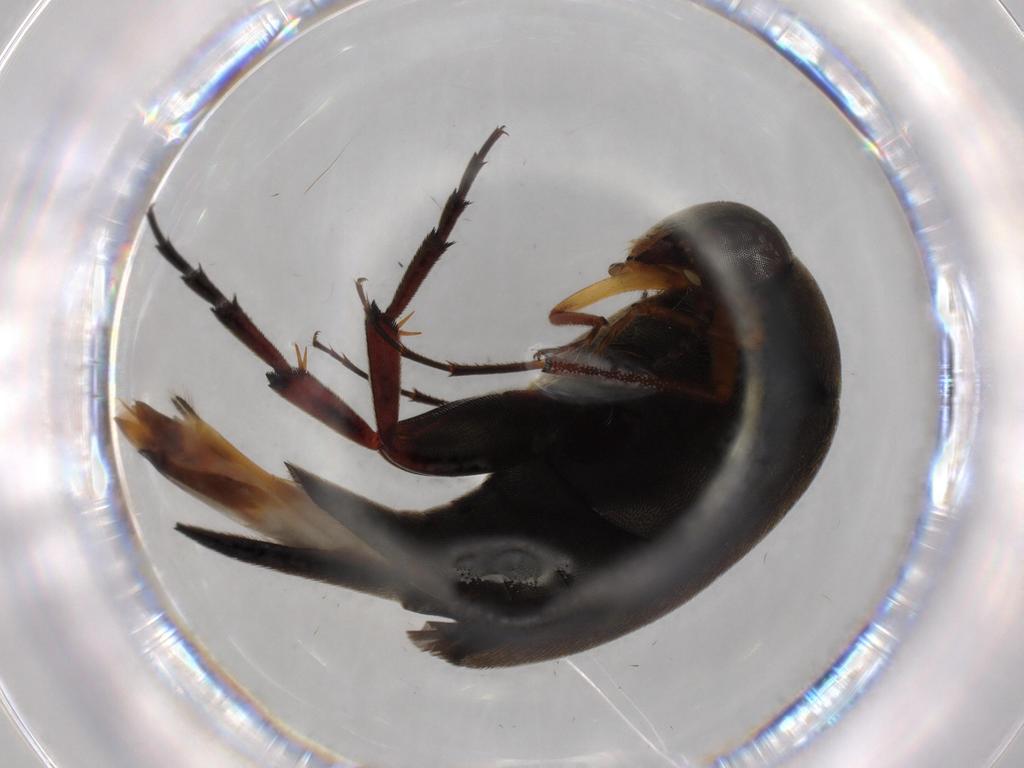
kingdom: Animalia
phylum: Arthropoda
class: Insecta
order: Coleoptera
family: Mordellidae
